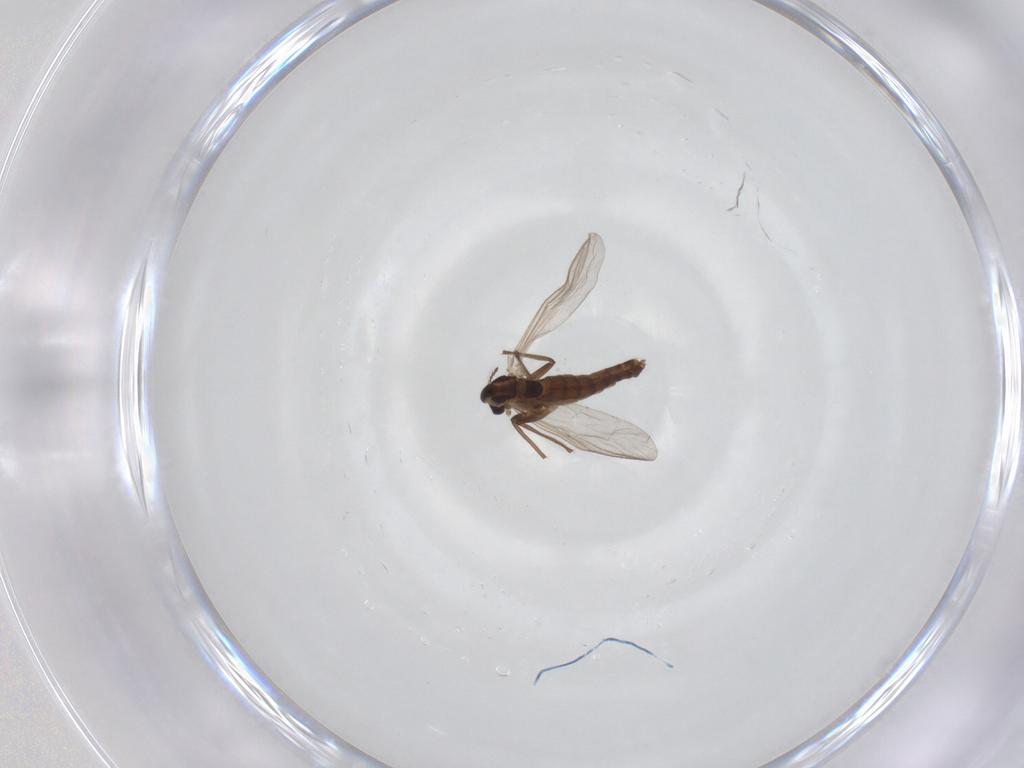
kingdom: Animalia
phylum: Arthropoda
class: Insecta
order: Diptera
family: Chironomidae
